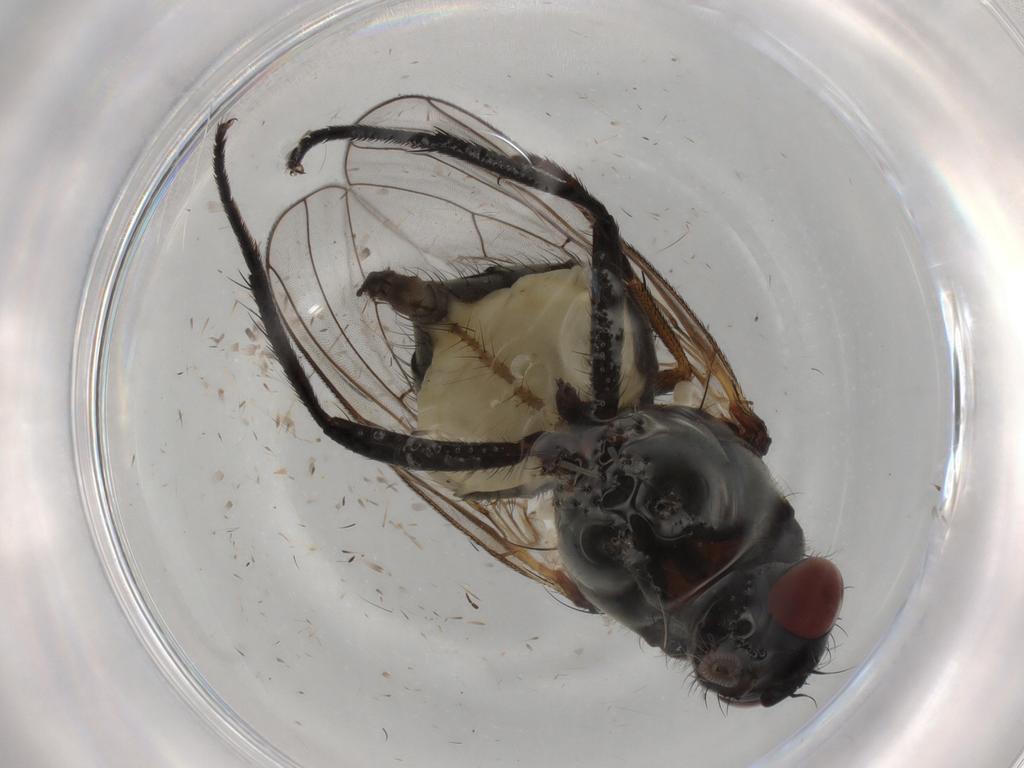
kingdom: Animalia
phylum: Arthropoda
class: Insecta
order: Diptera
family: Anthomyiidae
